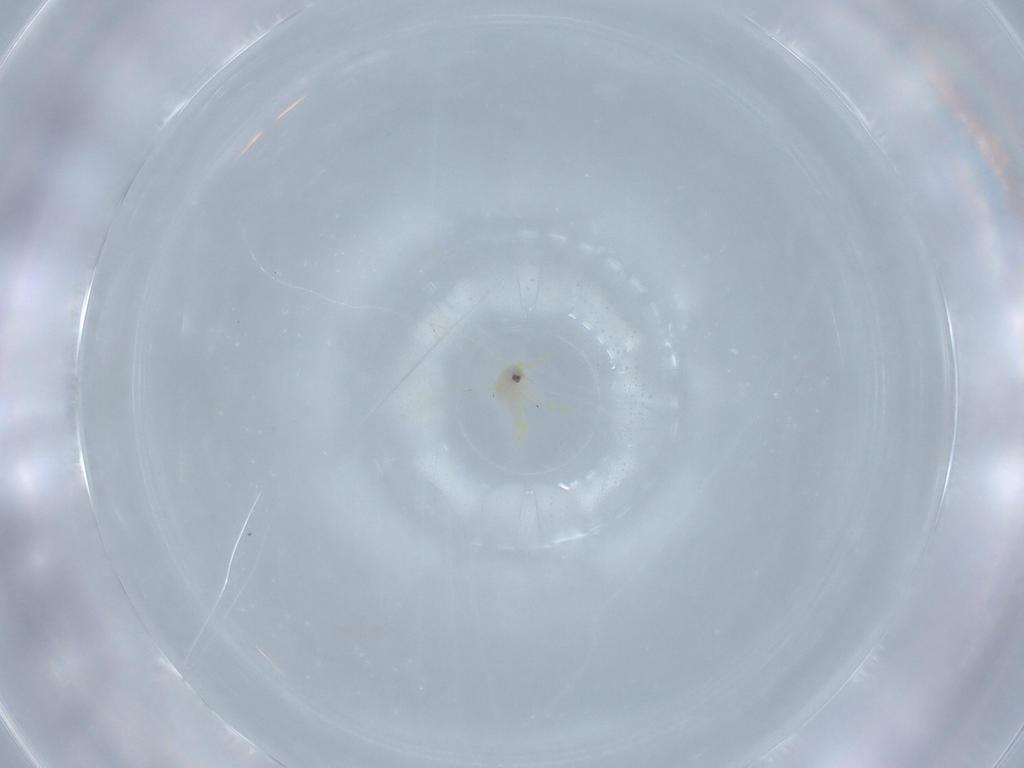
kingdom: Animalia
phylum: Arthropoda
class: Insecta
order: Hemiptera
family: Aleyrodidae
